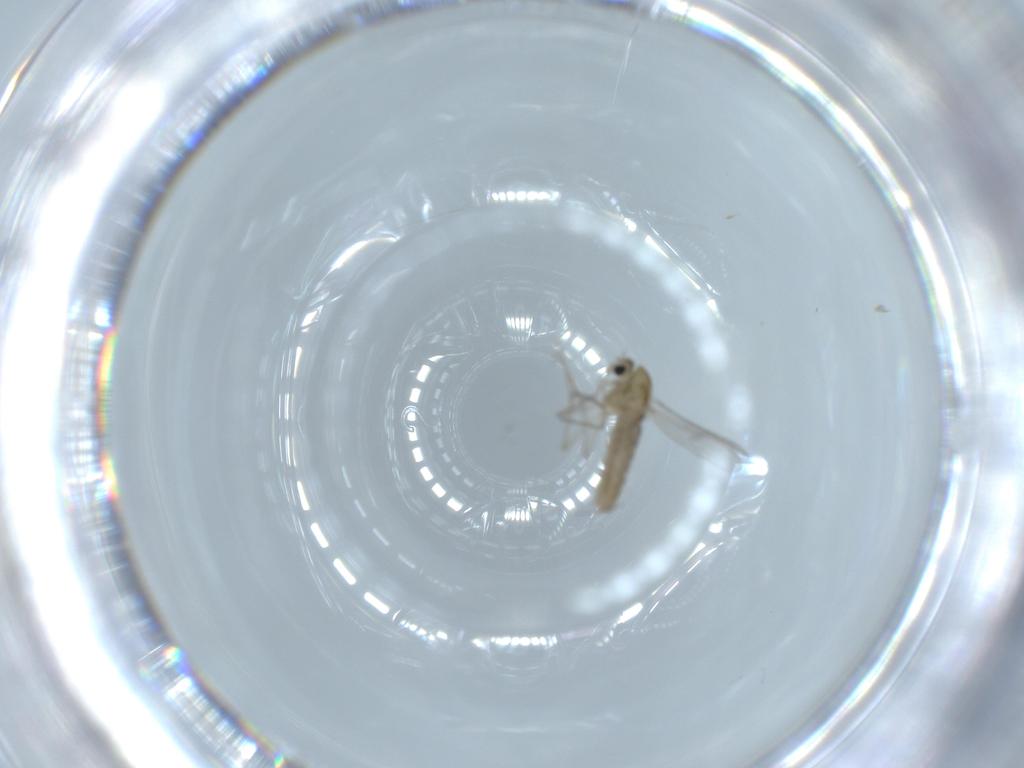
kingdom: Animalia
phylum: Arthropoda
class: Insecta
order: Diptera
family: Chironomidae
